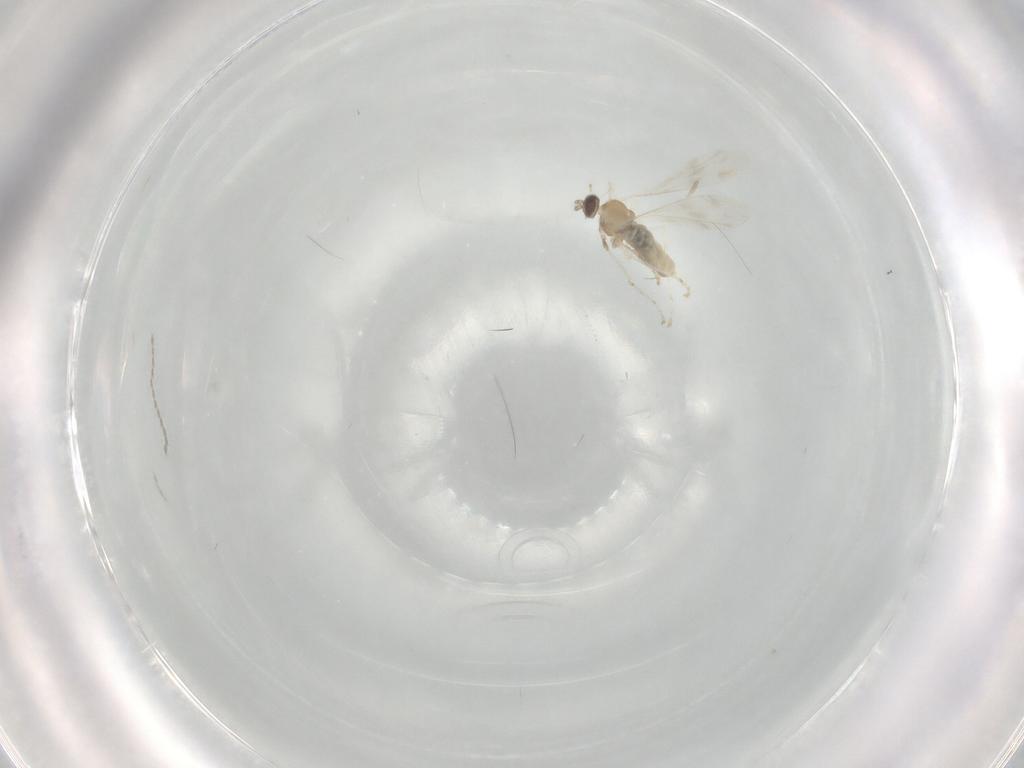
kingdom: Animalia
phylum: Arthropoda
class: Insecta
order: Diptera
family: Cecidomyiidae
